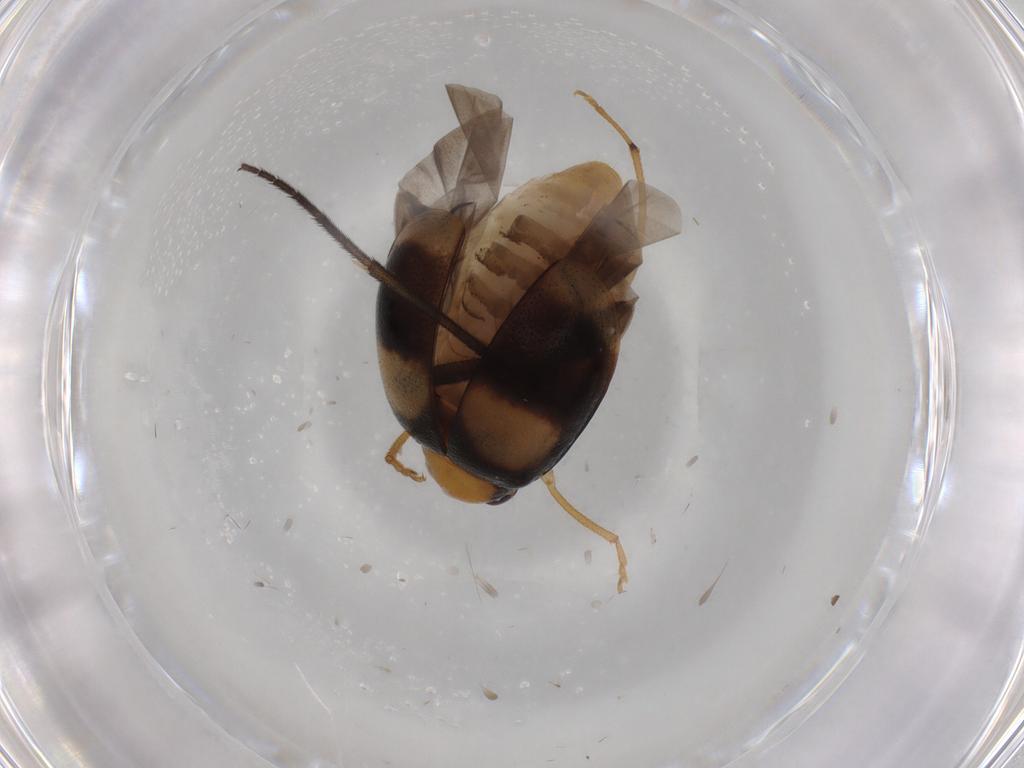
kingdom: Animalia
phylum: Arthropoda
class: Insecta
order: Coleoptera
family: Chrysomelidae
